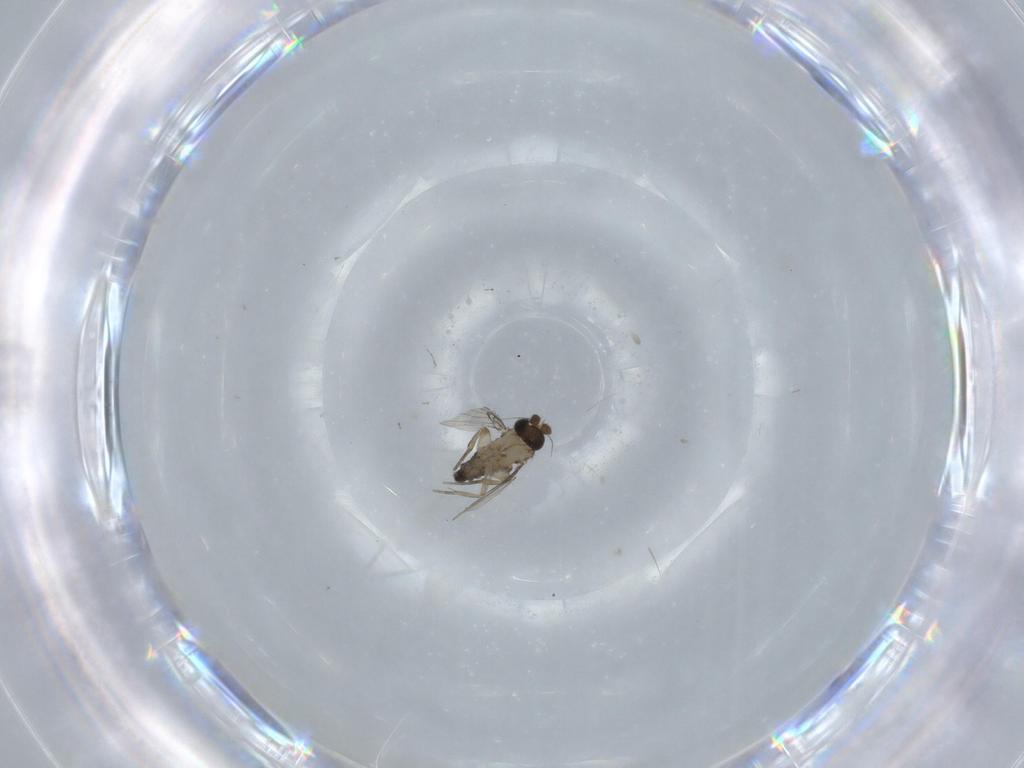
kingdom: Animalia
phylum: Arthropoda
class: Insecta
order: Diptera
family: Phoridae
